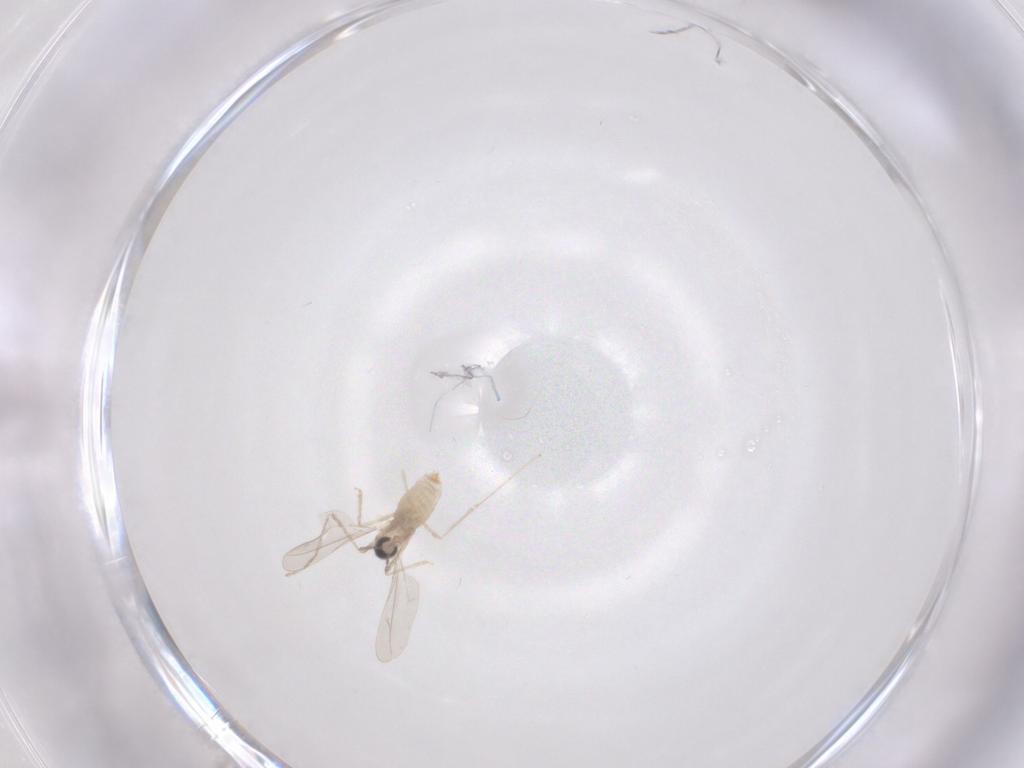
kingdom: Animalia
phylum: Arthropoda
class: Insecta
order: Diptera
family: Cecidomyiidae
